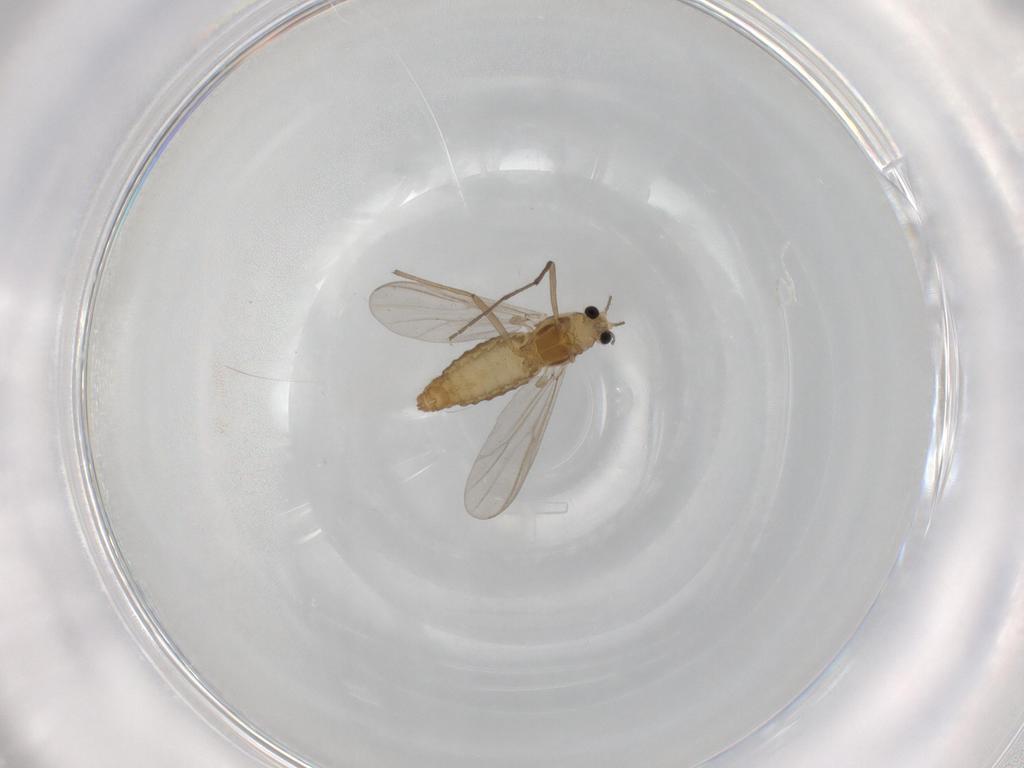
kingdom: Animalia
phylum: Arthropoda
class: Insecta
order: Diptera
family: Chironomidae
